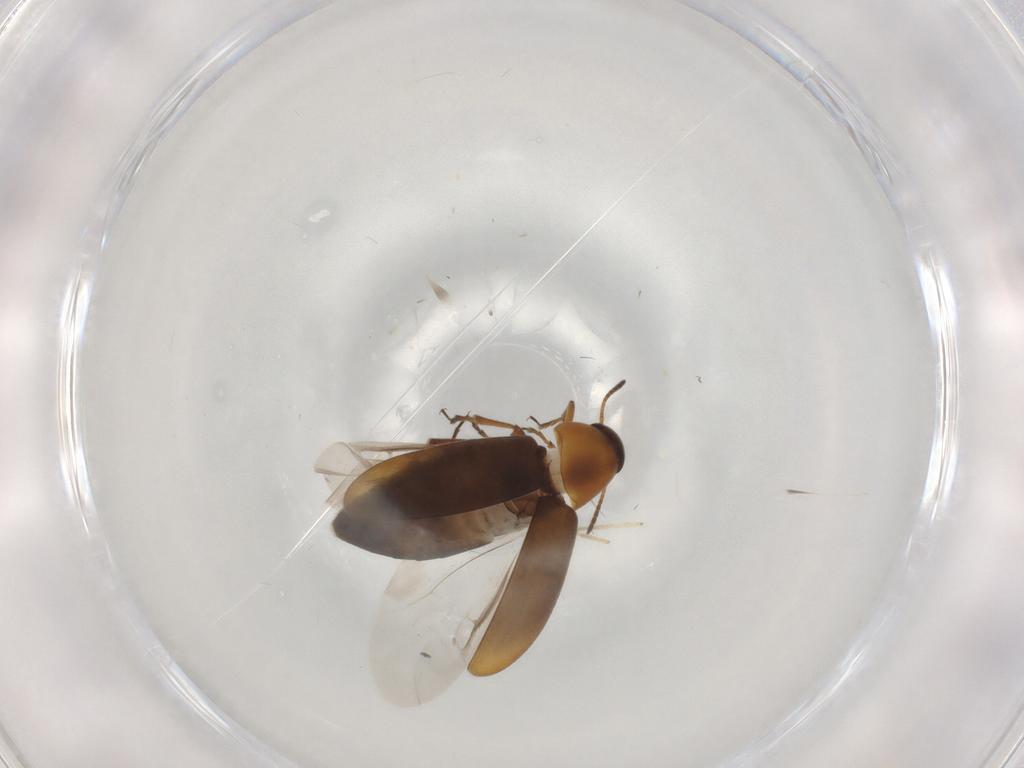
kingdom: Animalia
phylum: Arthropoda
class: Insecta
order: Coleoptera
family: Scraptiidae
